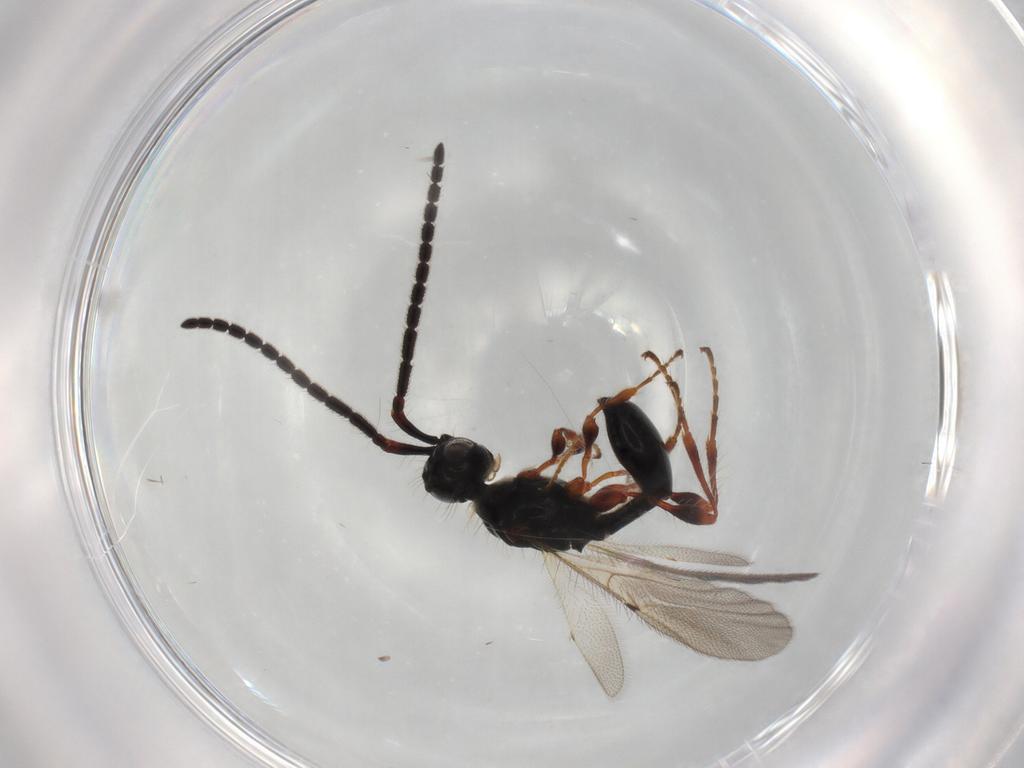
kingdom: Animalia
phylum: Arthropoda
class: Insecta
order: Hymenoptera
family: Diapriidae
